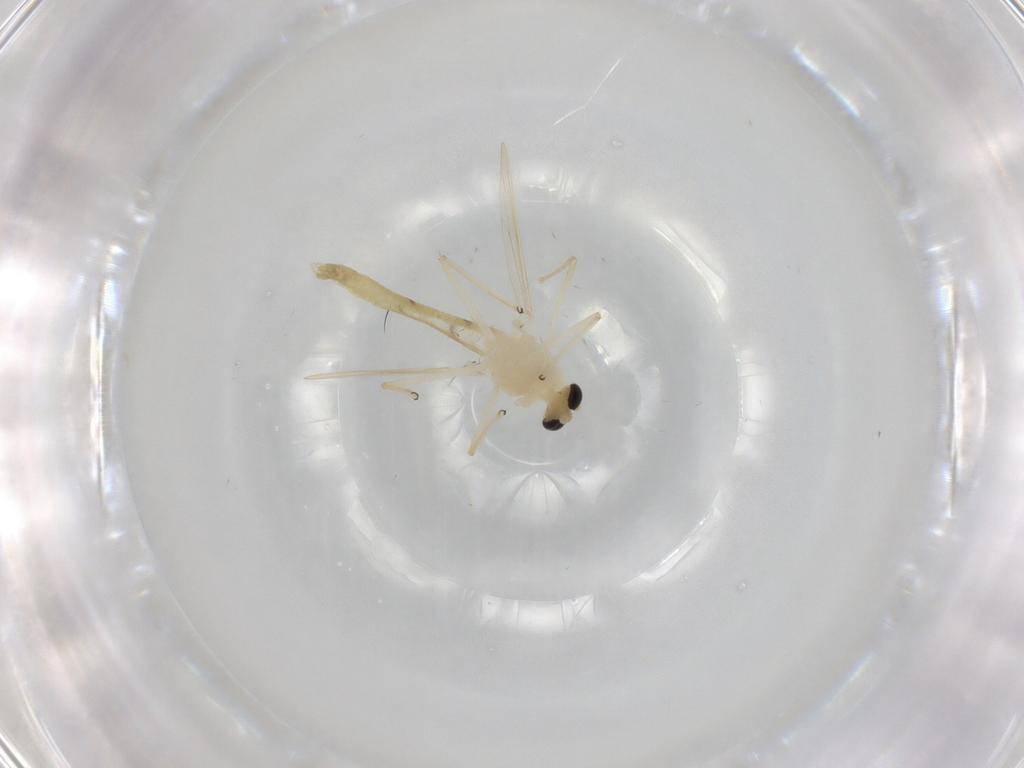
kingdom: Animalia
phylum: Arthropoda
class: Insecta
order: Diptera
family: Chironomidae
